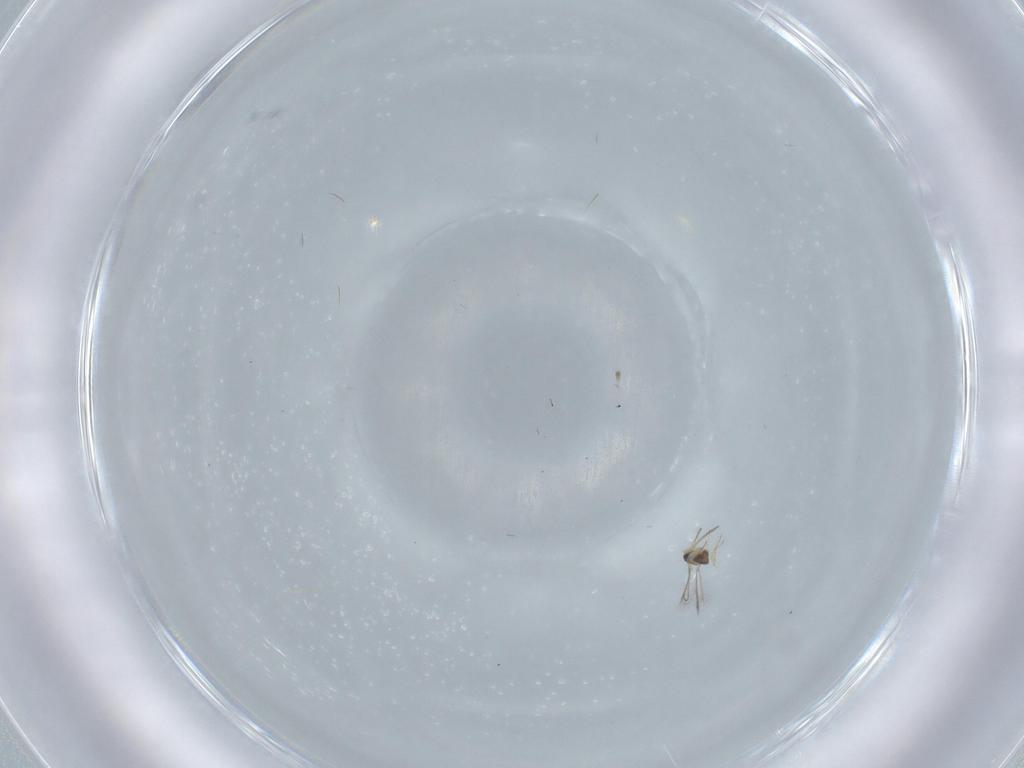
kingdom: Animalia
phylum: Arthropoda
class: Insecta
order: Hymenoptera
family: Mymaridae
